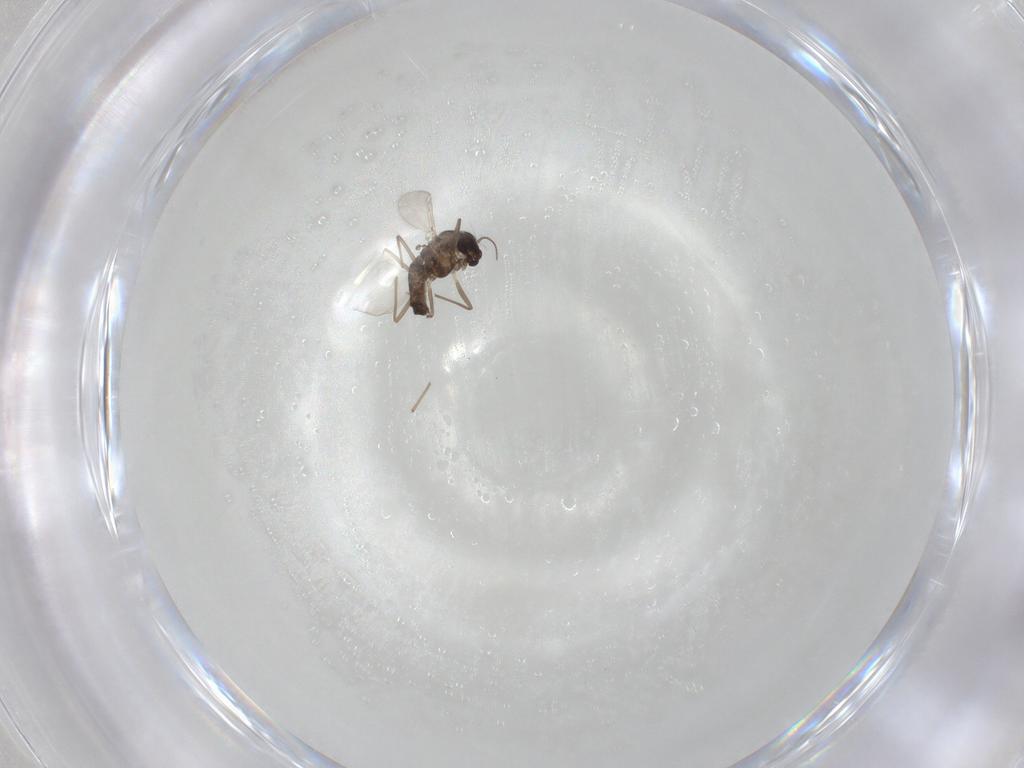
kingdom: Animalia
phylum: Arthropoda
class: Insecta
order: Diptera
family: Chironomidae
